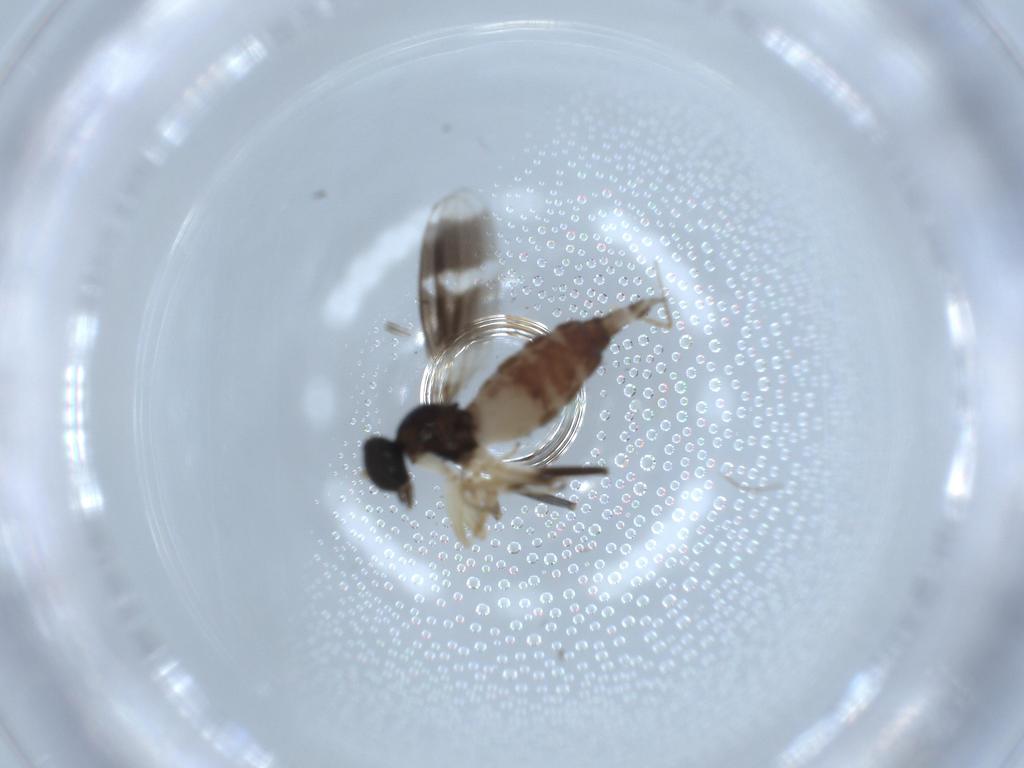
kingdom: Animalia
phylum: Arthropoda
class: Insecta
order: Diptera
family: Hybotidae
